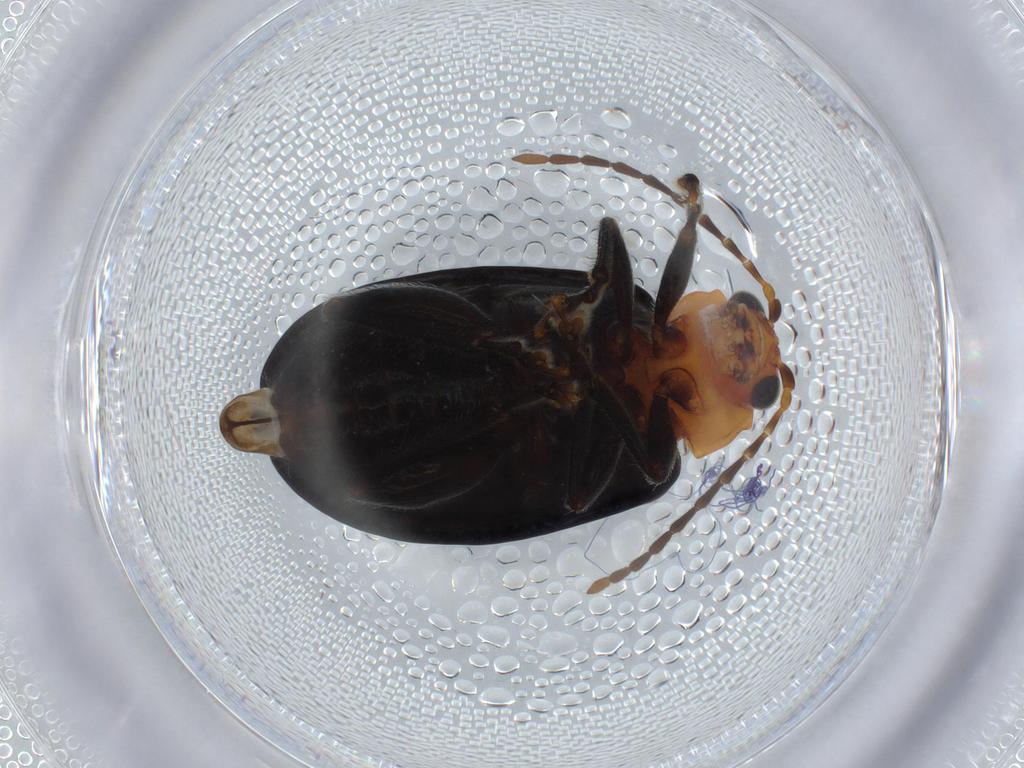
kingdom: Animalia
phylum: Arthropoda
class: Insecta
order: Coleoptera
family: Chrysomelidae
